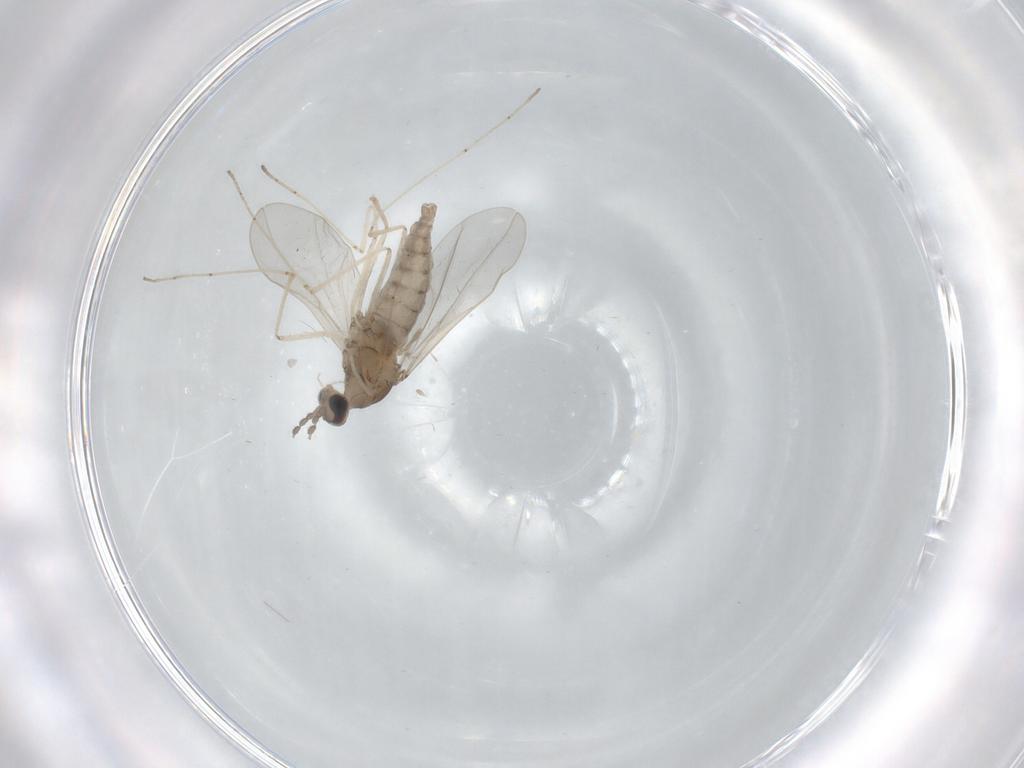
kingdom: Animalia
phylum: Arthropoda
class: Insecta
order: Diptera
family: Cecidomyiidae
